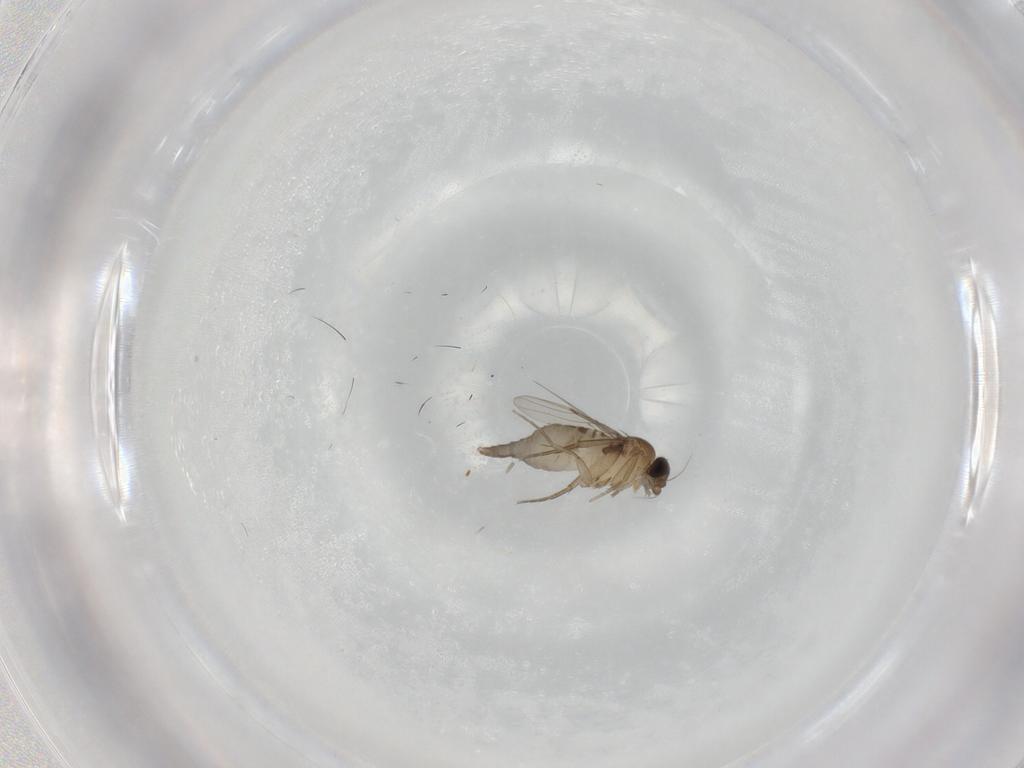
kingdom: Animalia
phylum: Arthropoda
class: Insecta
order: Diptera
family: Phoridae
